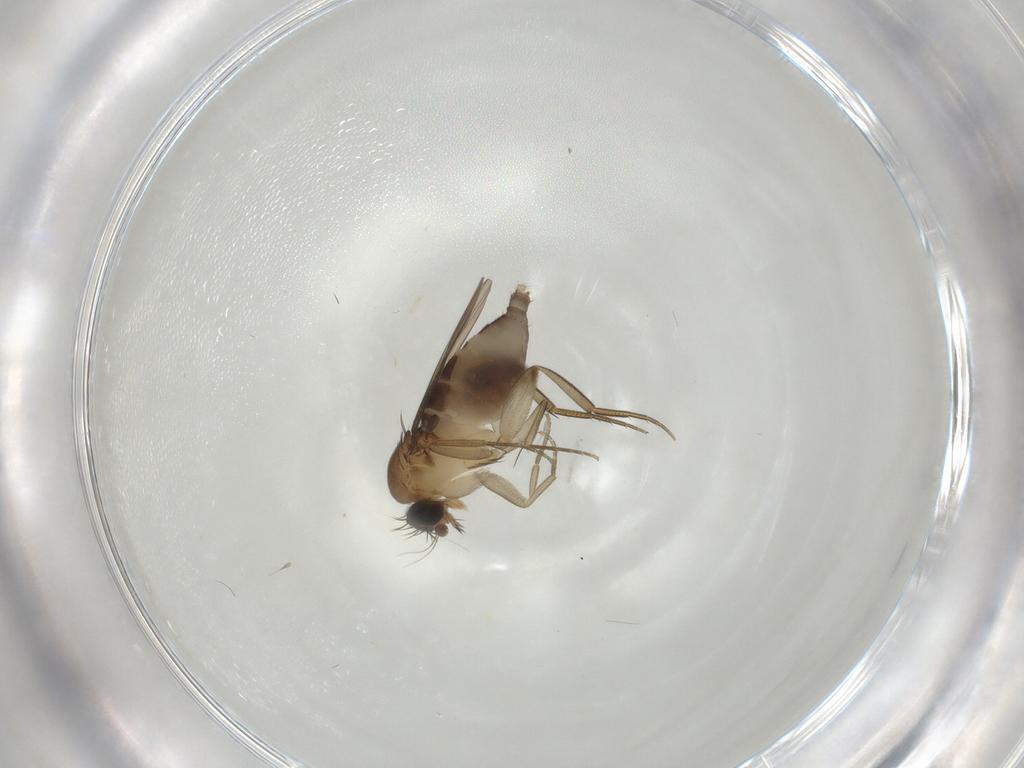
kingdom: Animalia
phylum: Arthropoda
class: Insecta
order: Diptera
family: Phoridae
